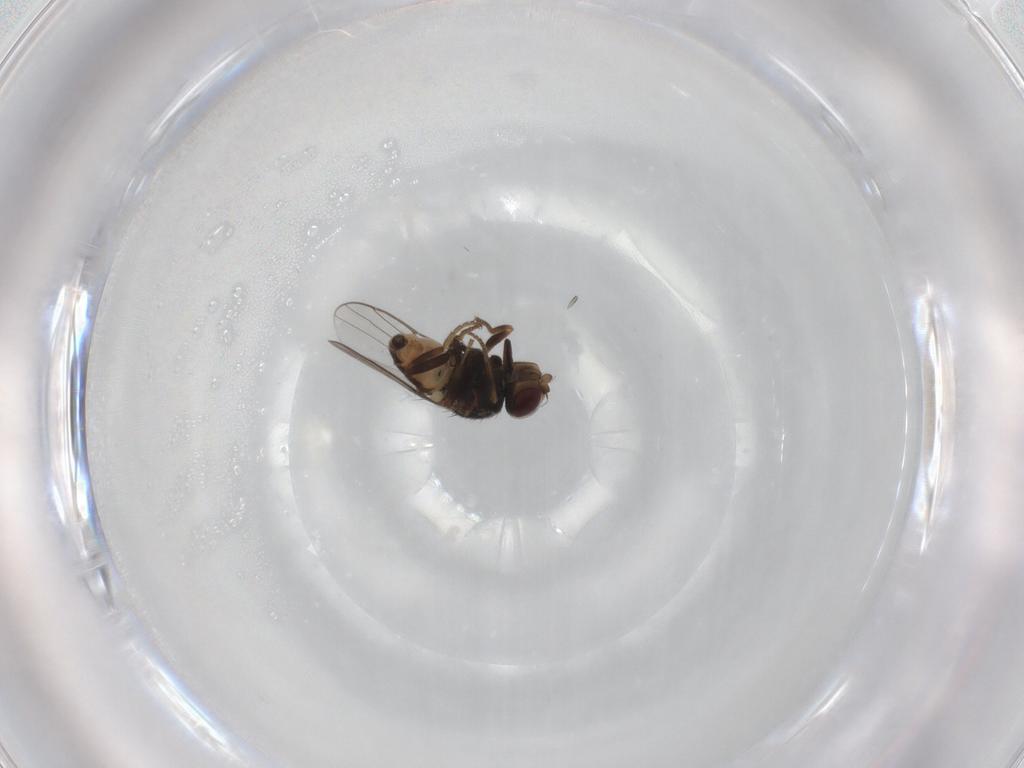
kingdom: Animalia
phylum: Arthropoda
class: Insecta
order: Diptera
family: Chloropidae
